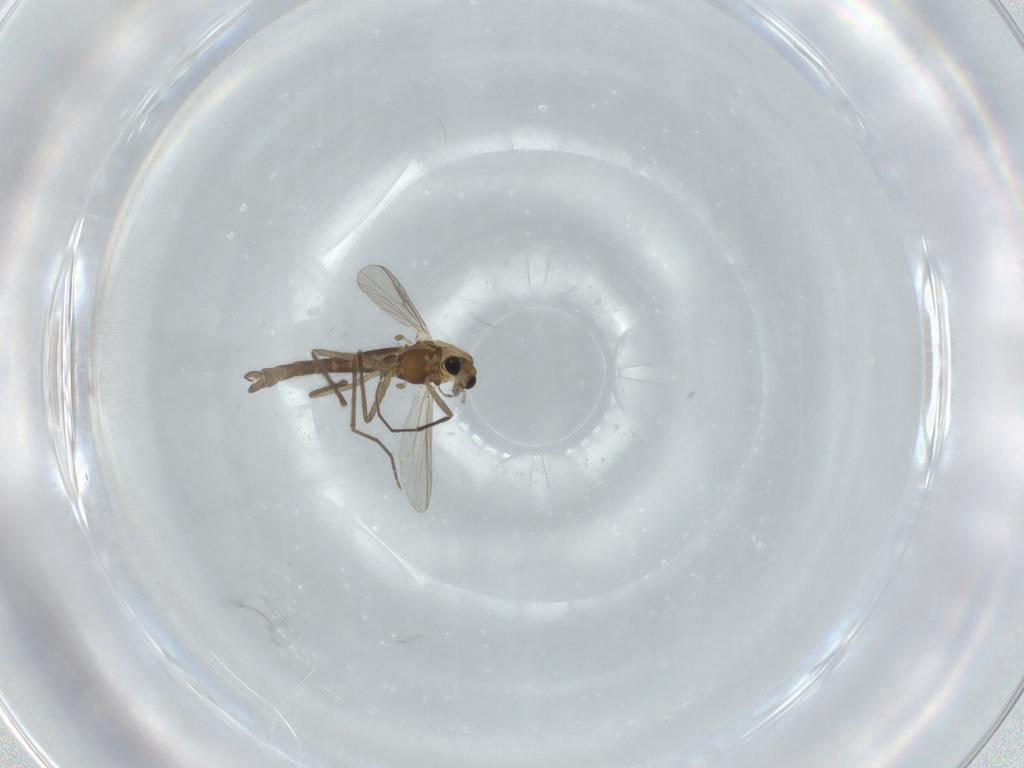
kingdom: Animalia
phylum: Arthropoda
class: Insecta
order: Diptera
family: Chironomidae
